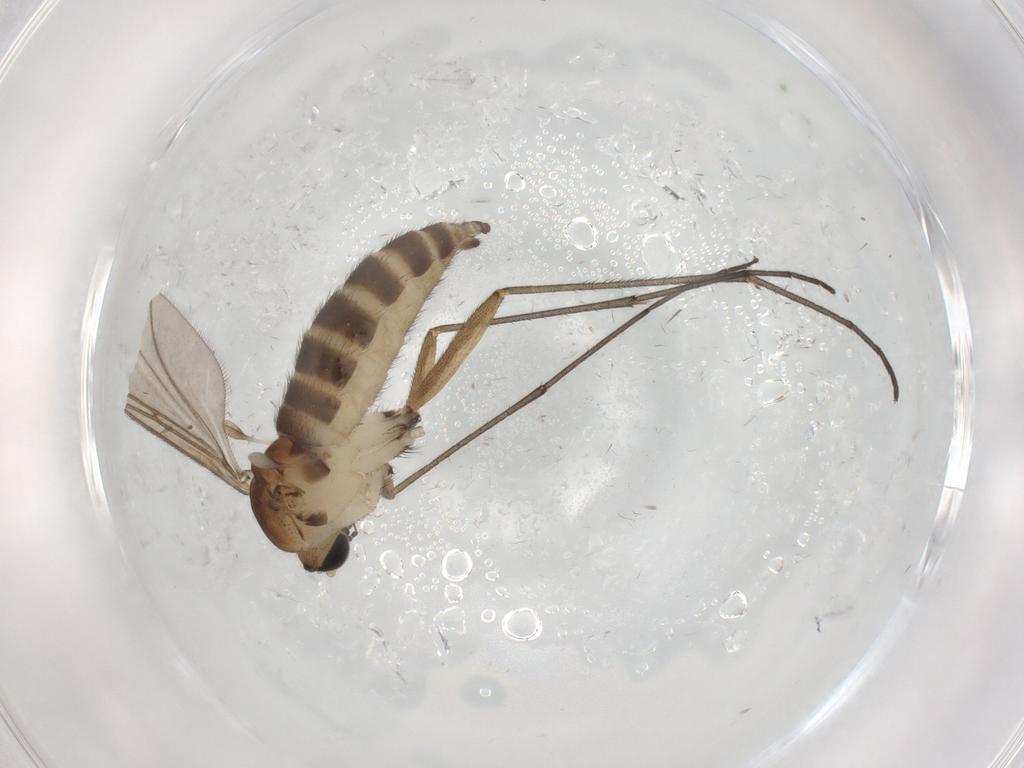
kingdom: Animalia
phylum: Arthropoda
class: Insecta
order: Diptera
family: Sciaridae
